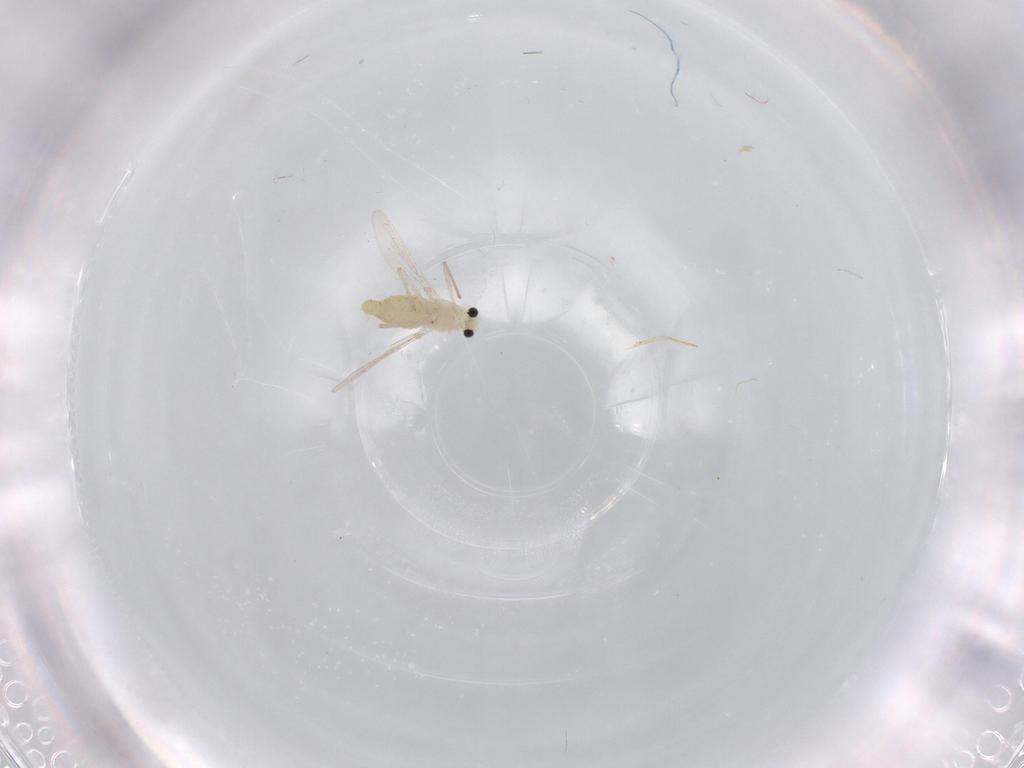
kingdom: Animalia
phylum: Arthropoda
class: Insecta
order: Diptera
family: Chironomidae
